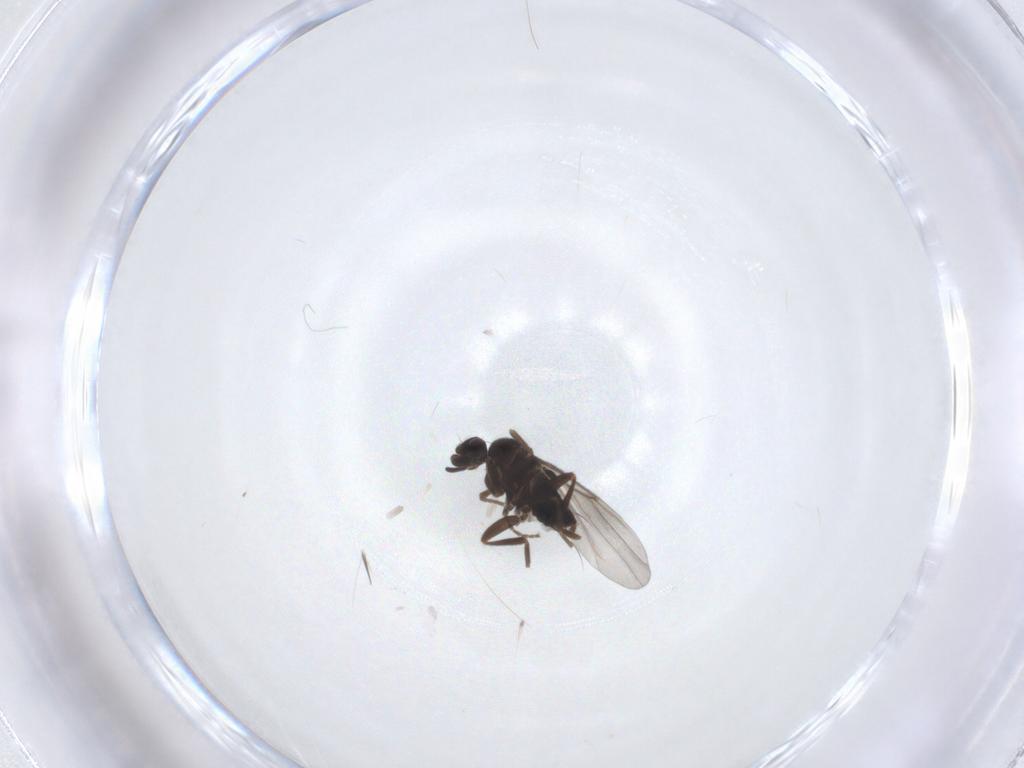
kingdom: Animalia
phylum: Arthropoda
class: Insecta
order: Diptera
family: Phoridae
